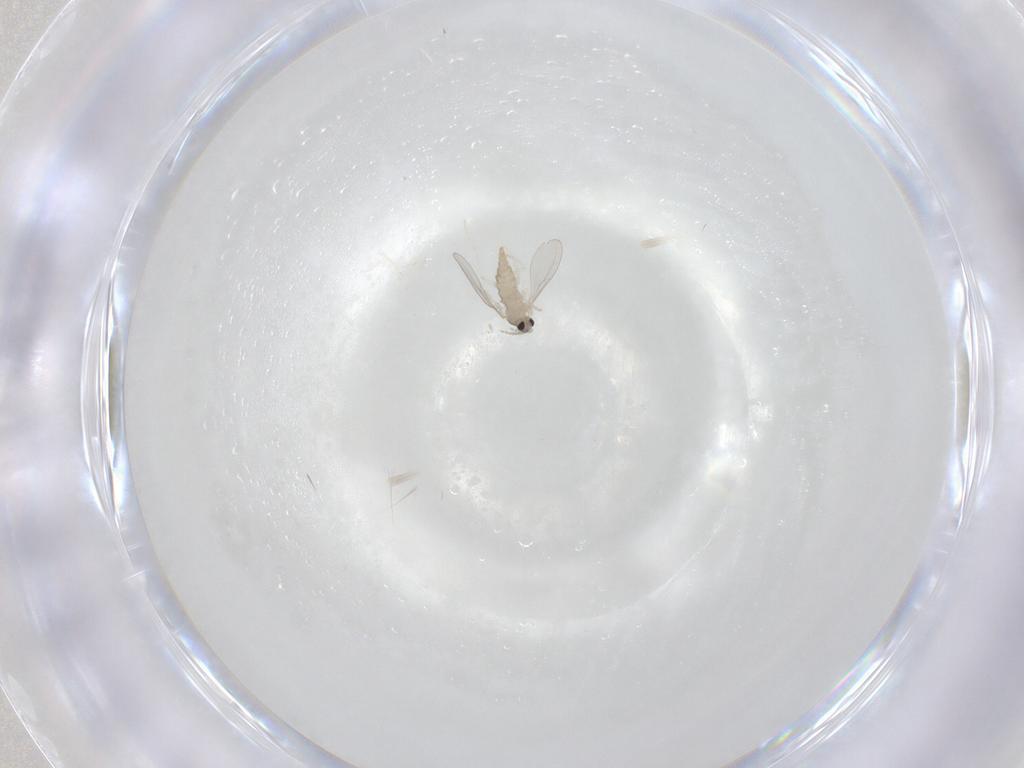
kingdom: Animalia
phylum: Arthropoda
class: Insecta
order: Diptera
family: Cecidomyiidae
